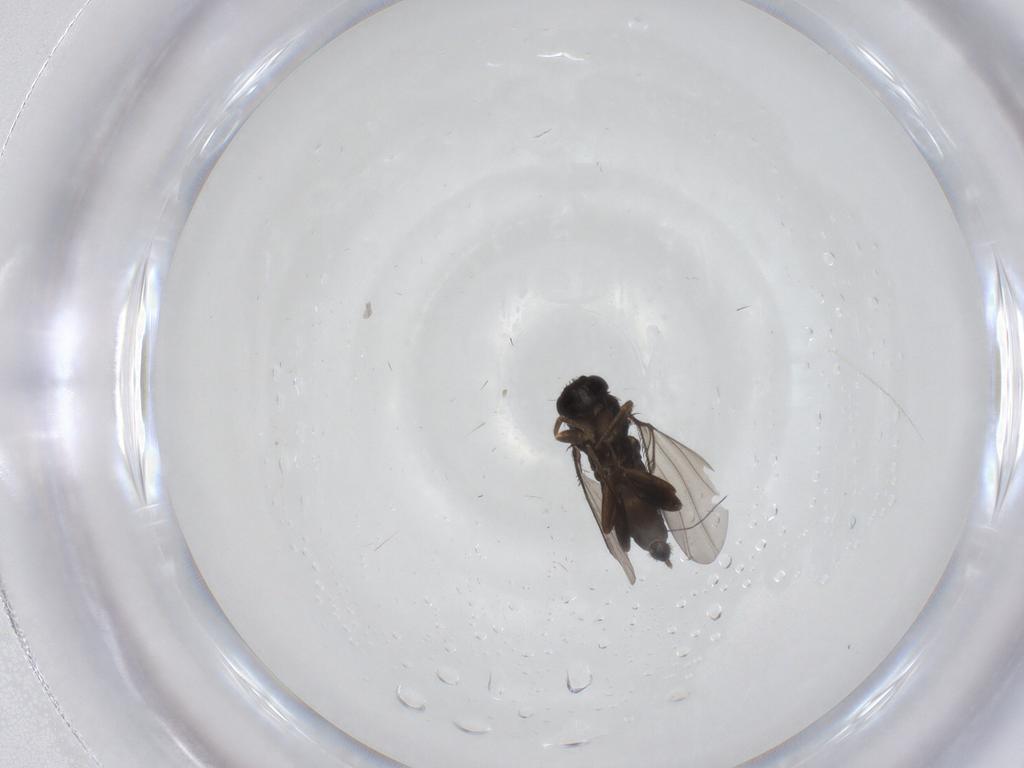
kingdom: Animalia
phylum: Arthropoda
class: Insecta
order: Diptera
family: Phoridae
